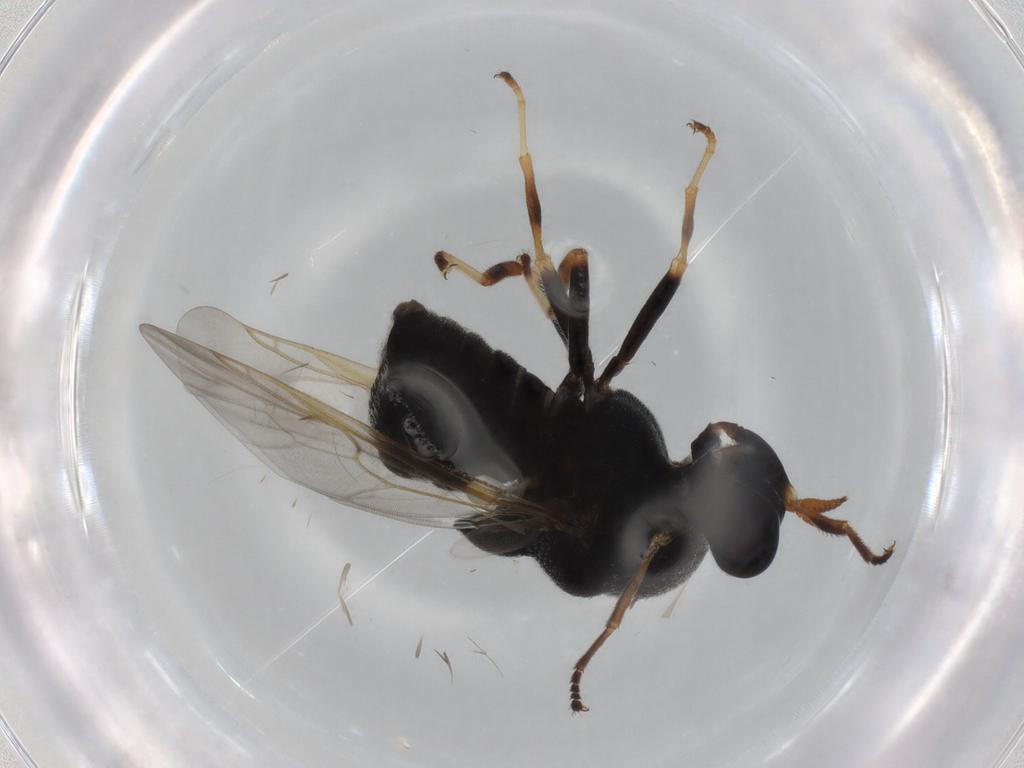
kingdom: Animalia
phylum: Arthropoda
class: Insecta
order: Diptera
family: Stratiomyidae
